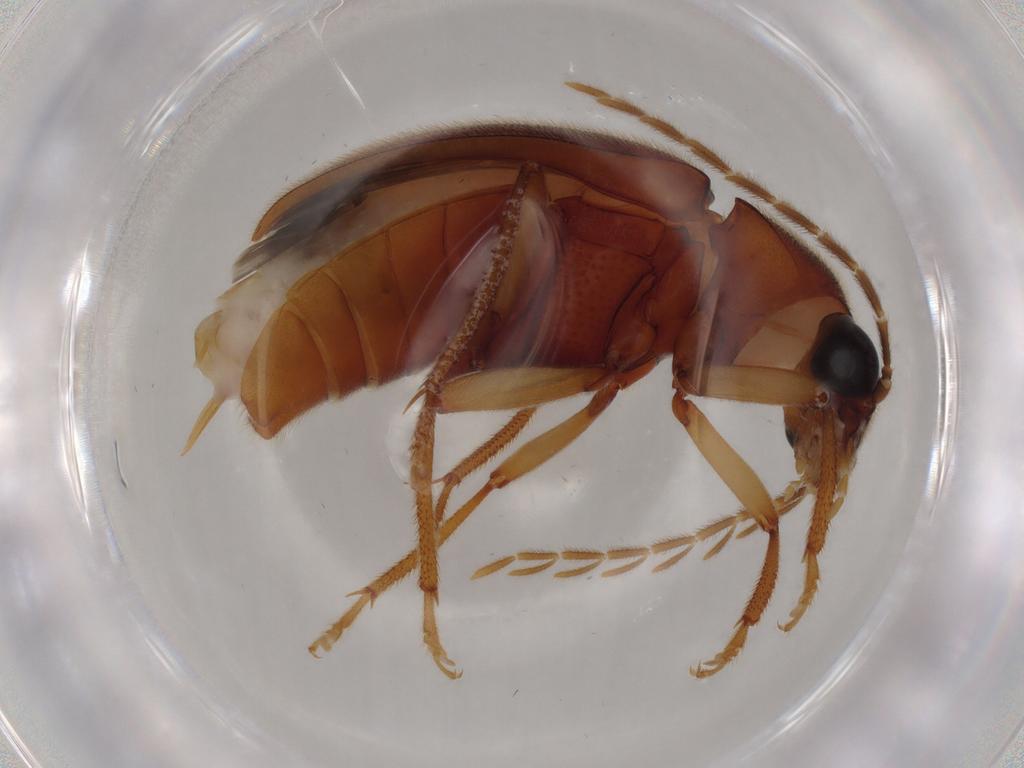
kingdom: Animalia
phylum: Arthropoda
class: Insecta
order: Coleoptera
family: Ptilodactylidae
